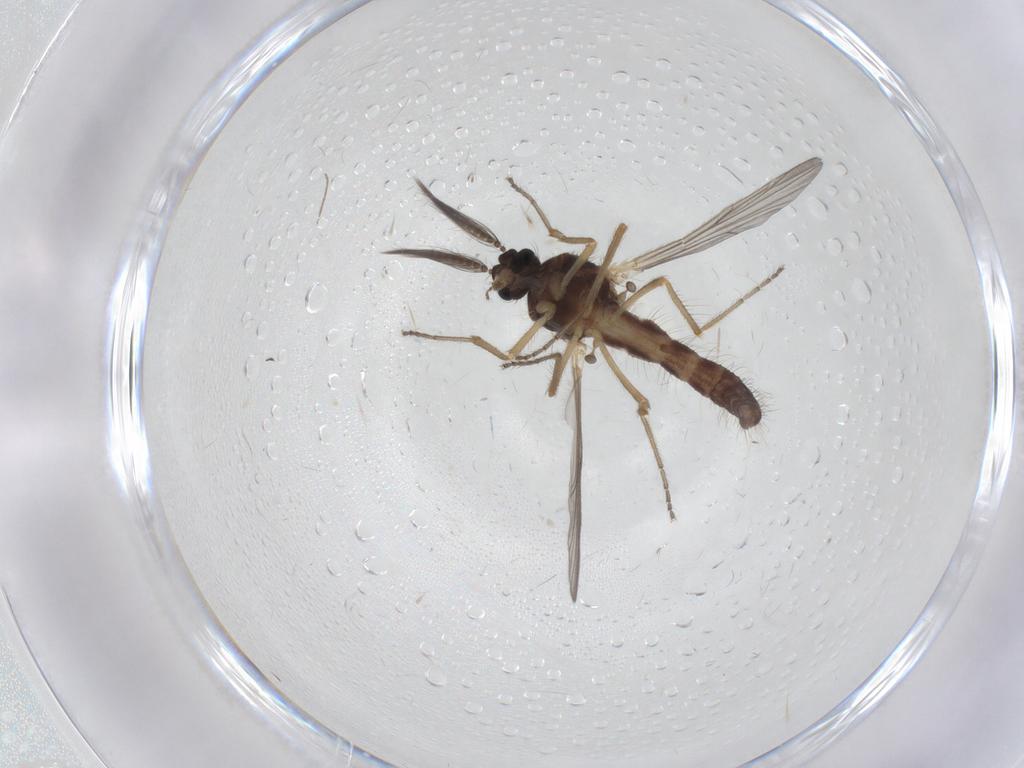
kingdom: Animalia
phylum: Arthropoda
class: Insecta
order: Diptera
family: Ceratopogonidae
